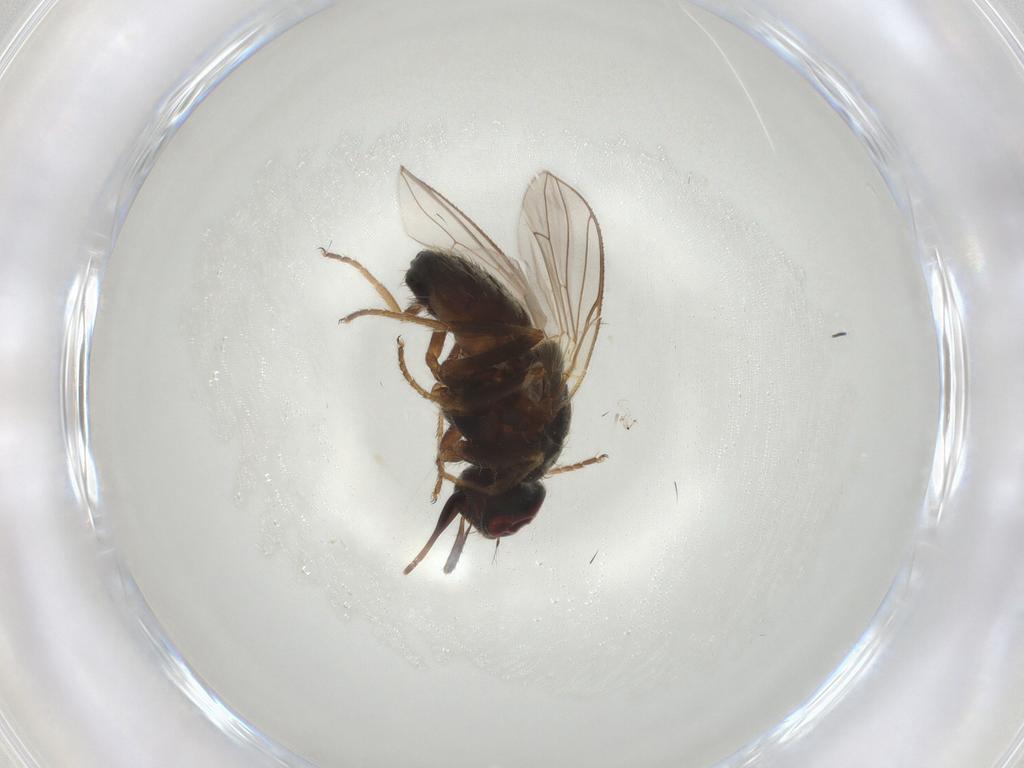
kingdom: Animalia
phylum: Arthropoda
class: Insecta
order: Diptera
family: Muscidae
